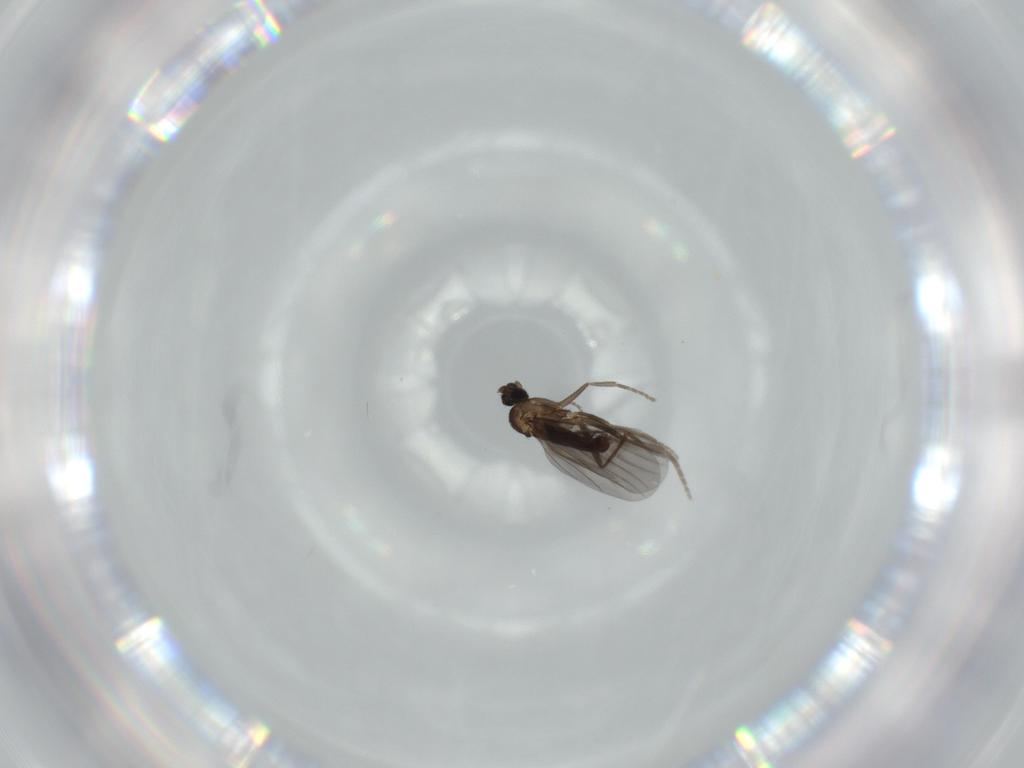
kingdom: Animalia
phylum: Arthropoda
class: Insecta
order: Diptera
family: Phoridae
